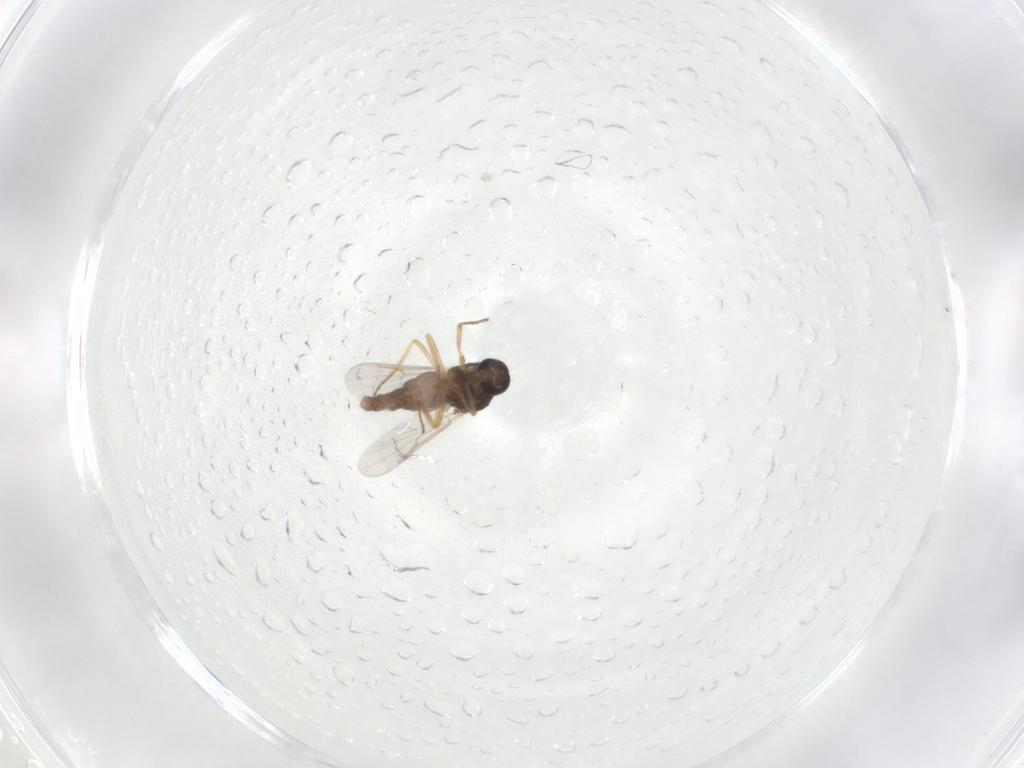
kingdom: Animalia
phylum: Arthropoda
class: Insecta
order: Diptera
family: Ceratopogonidae
